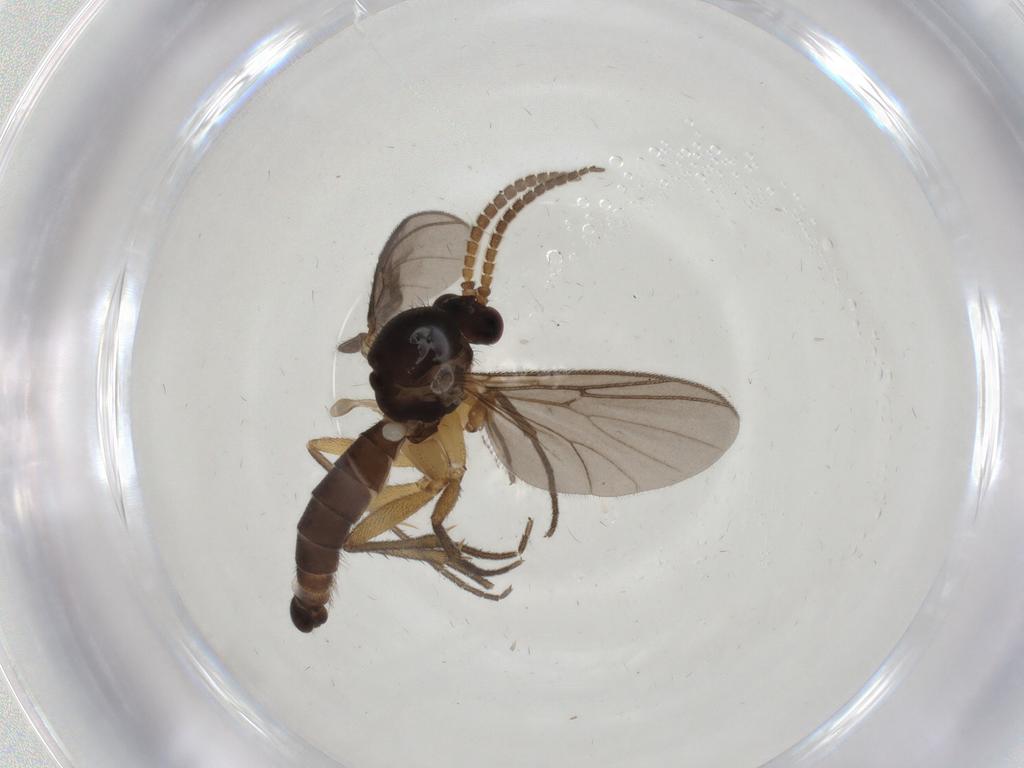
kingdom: Animalia
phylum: Arthropoda
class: Insecta
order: Diptera
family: Mycetophilidae
